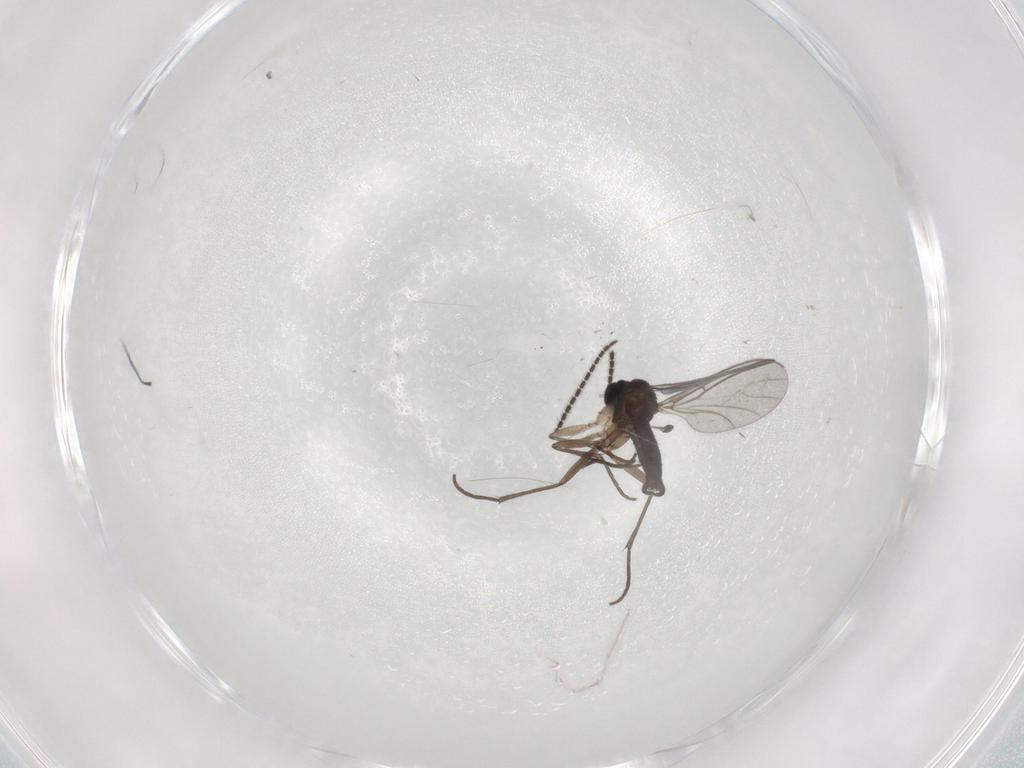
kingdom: Animalia
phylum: Arthropoda
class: Insecta
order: Diptera
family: Sciaridae
